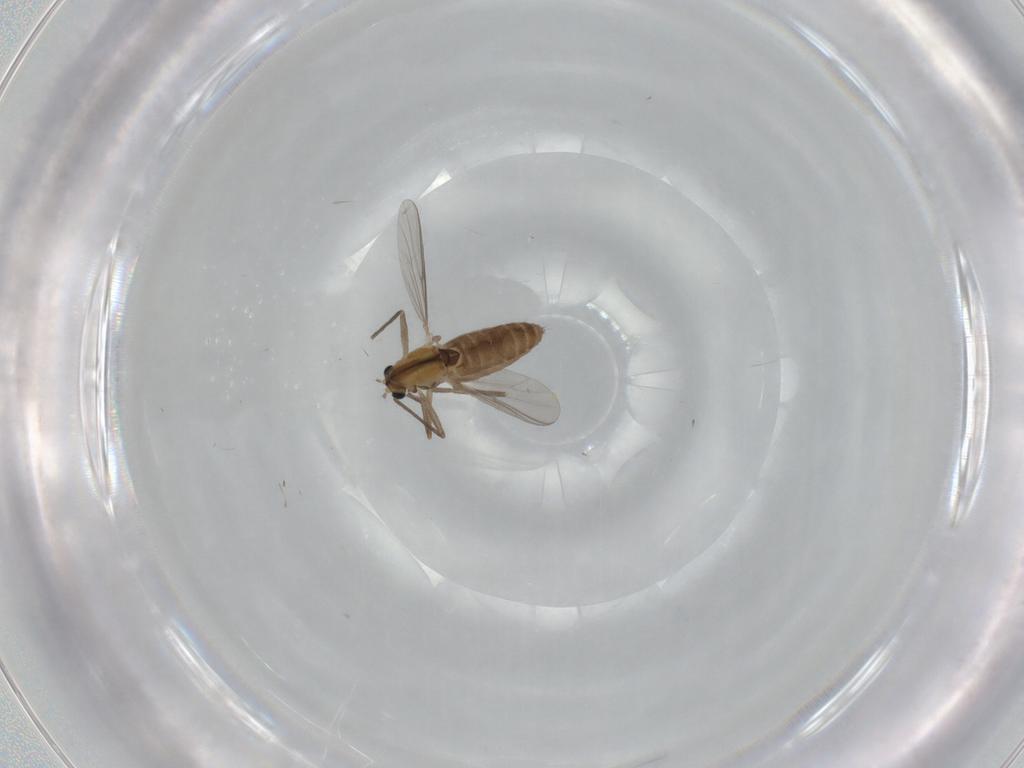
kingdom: Animalia
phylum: Arthropoda
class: Insecta
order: Diptera
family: Chironomidae
